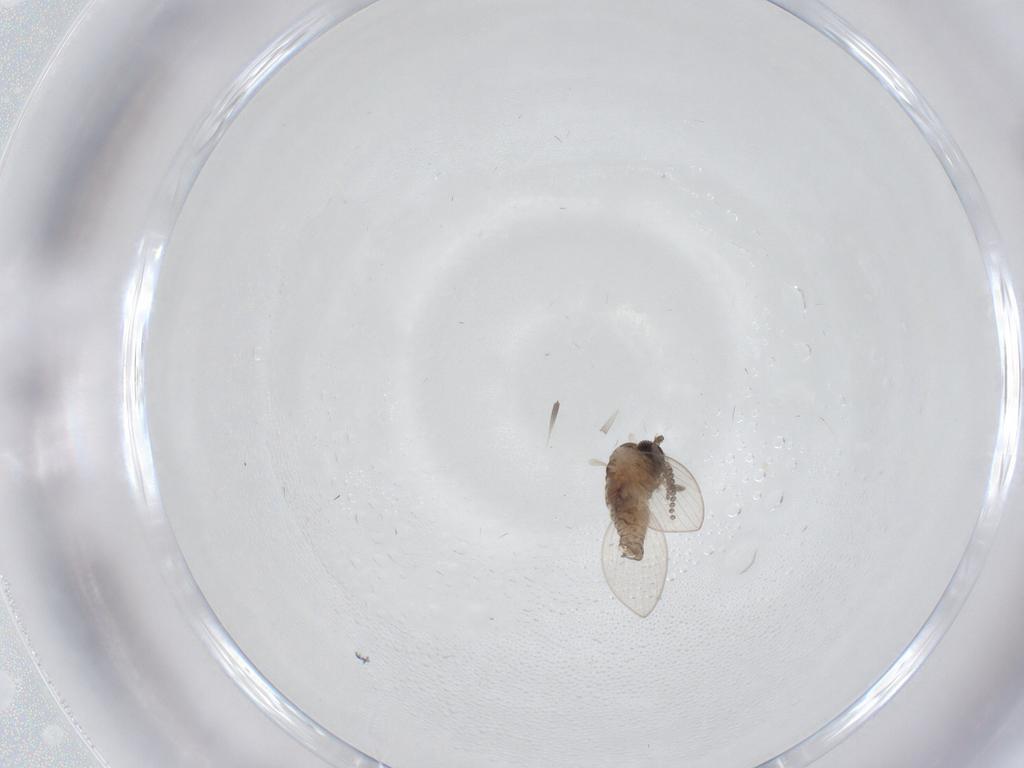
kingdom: Animalia
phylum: Arthropoda
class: Insecta
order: Diptera
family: Psychodidae
